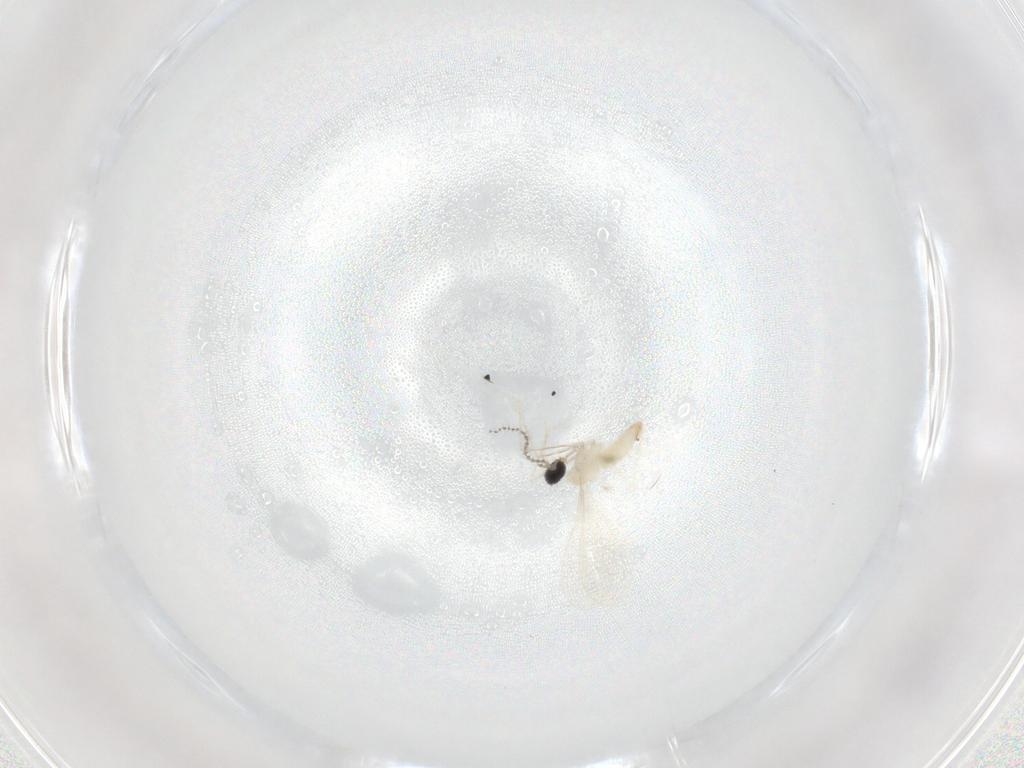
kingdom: Animalia
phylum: Arthropoda
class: Insecta
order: Diptera
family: Cecidomyiidae
